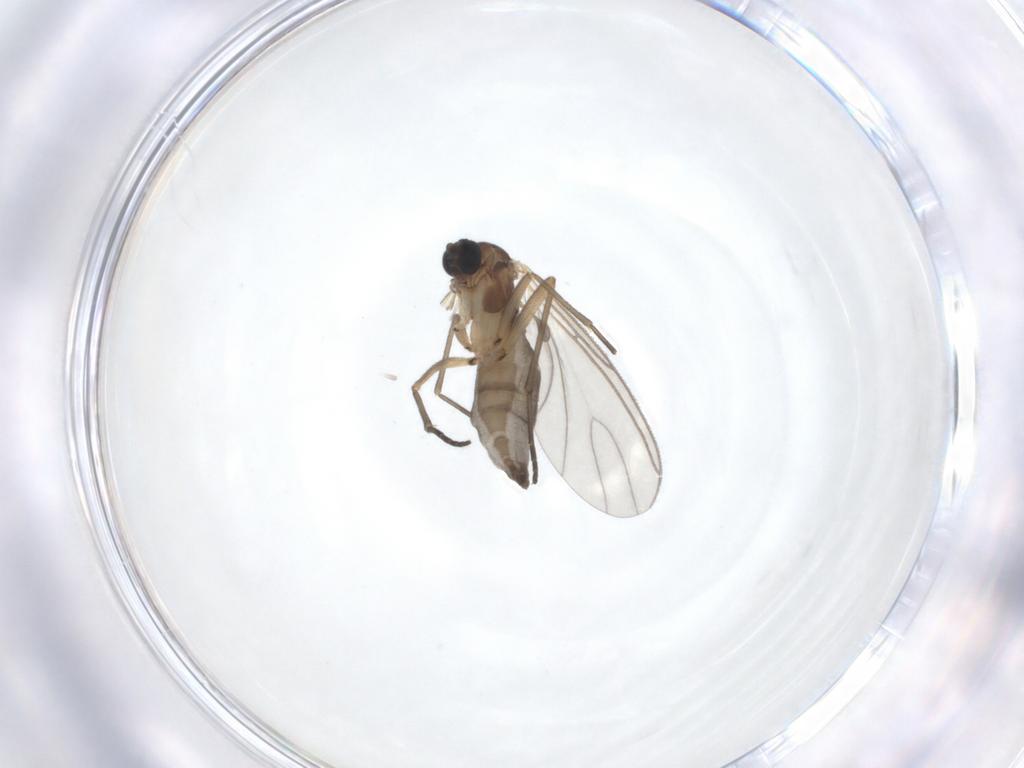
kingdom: Animalia
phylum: Arthropoda
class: Insecta
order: Diptera
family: Sciaridae
